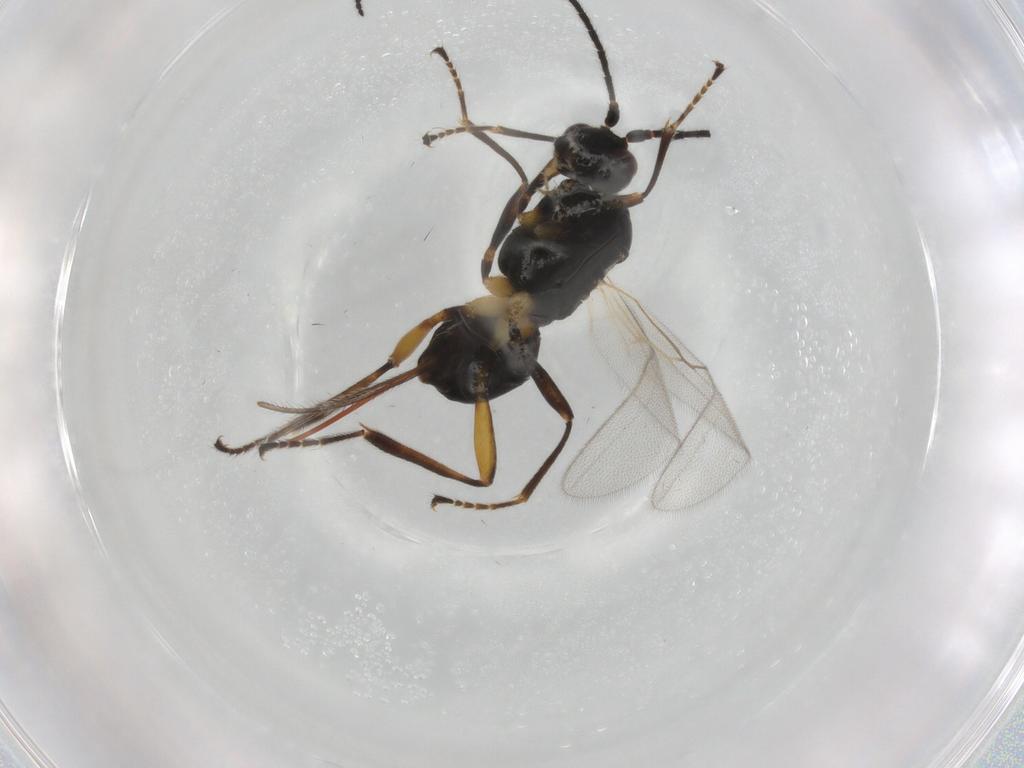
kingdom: Animalia
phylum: Arthropoda
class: Insecta
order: Hymenoptera
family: Braconidae
